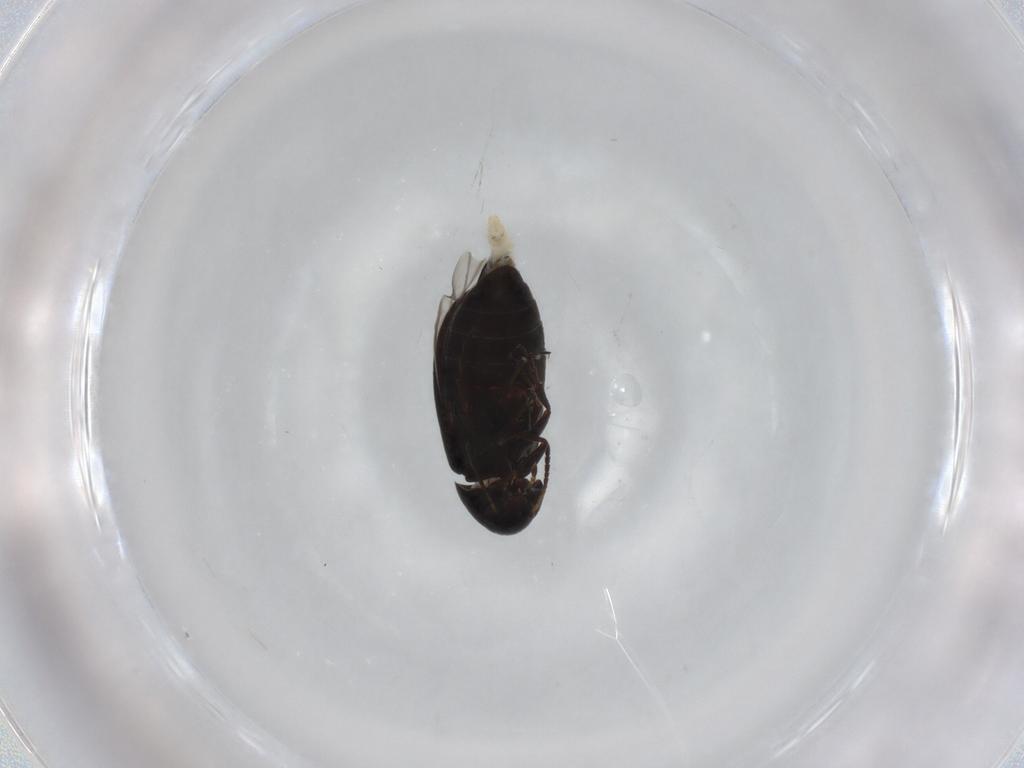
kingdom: Animalia
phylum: Arthropoda
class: Insecta
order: Coleoptera
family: Scraptiidae
